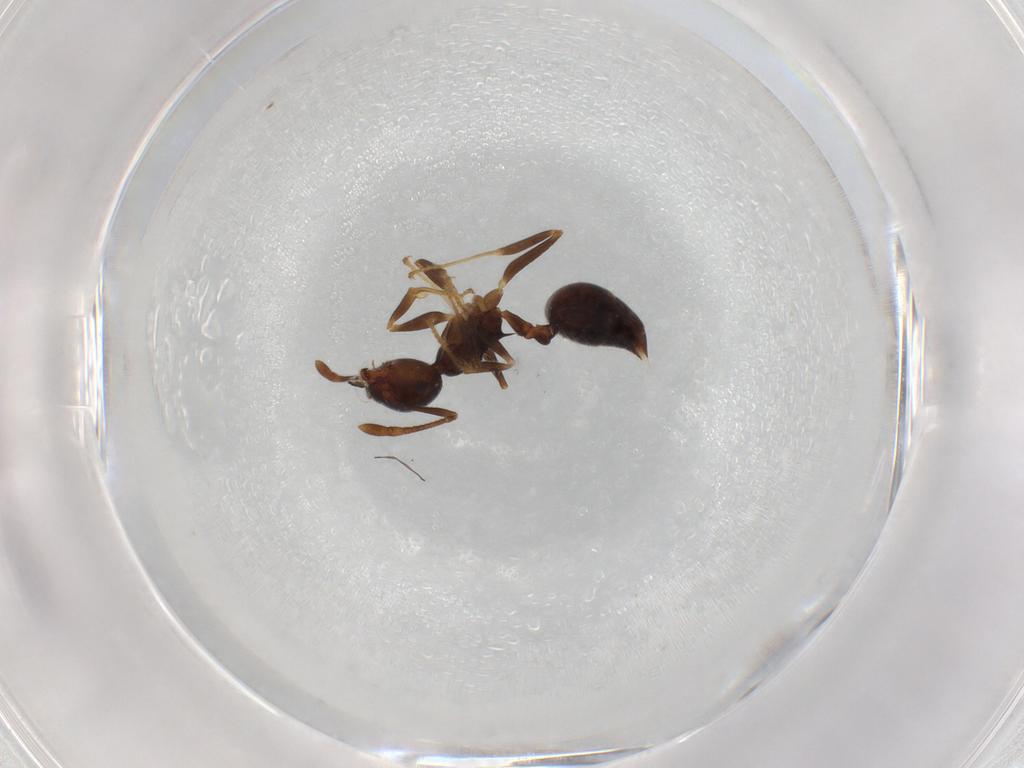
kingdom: Animalia
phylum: Arthropoda
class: Insecta
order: Hymenoptera
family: Formicidae
